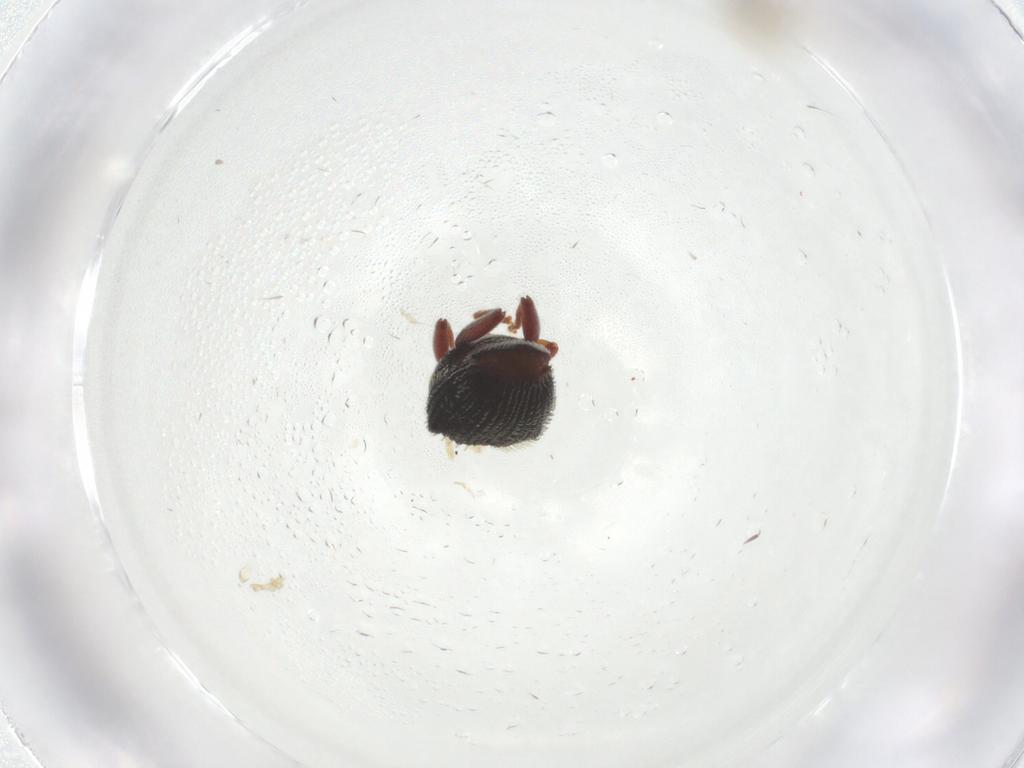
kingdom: Animalia
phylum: Arthropoda
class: Insecta
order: Coleoptera
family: Curculionidae
